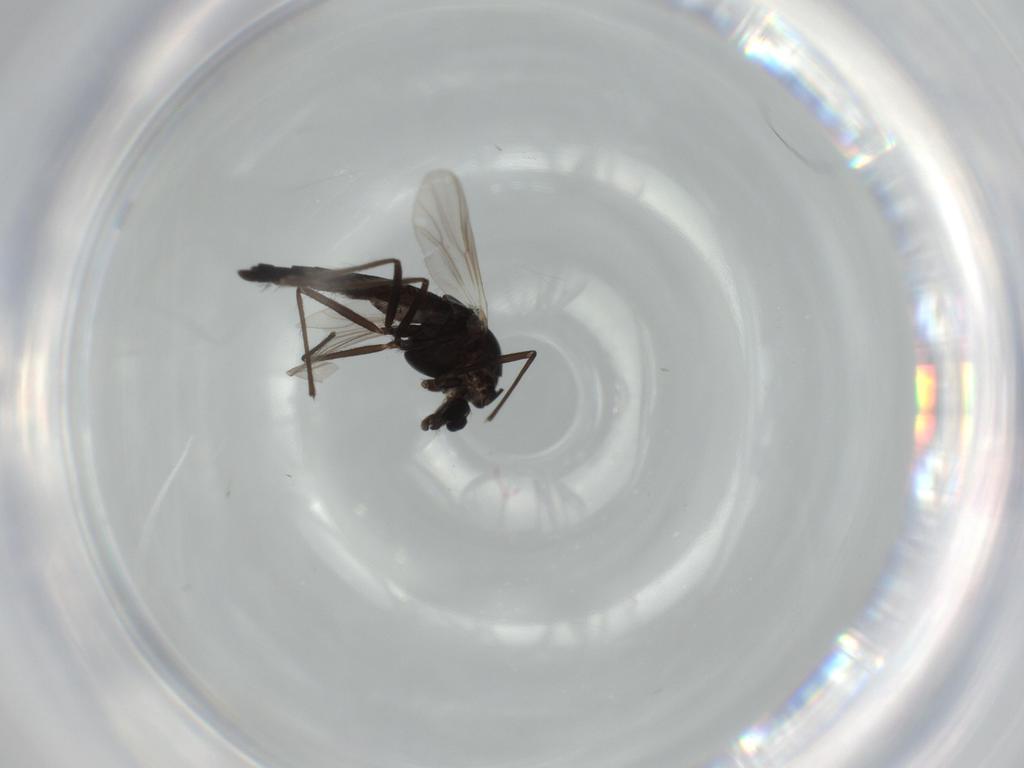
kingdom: Animalia
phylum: Arthropoda
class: Insecta
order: Diptera
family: Chironomidae
